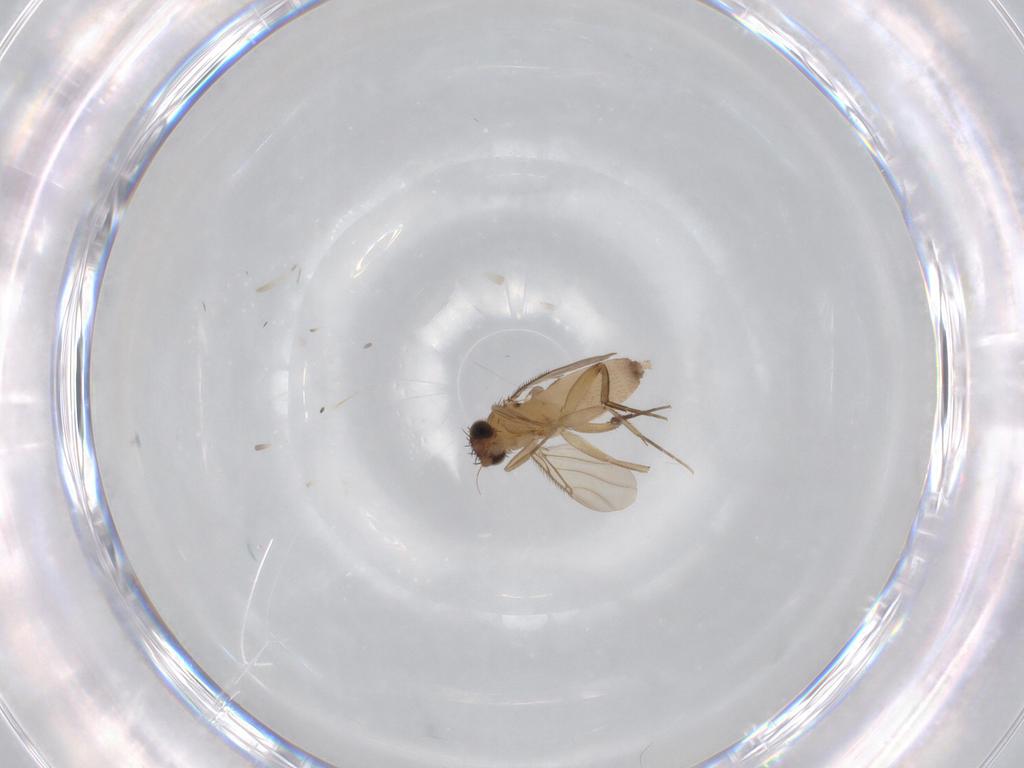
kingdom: Animalia
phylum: Arthropoda
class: Insecta
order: Diptera
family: Phoridae
